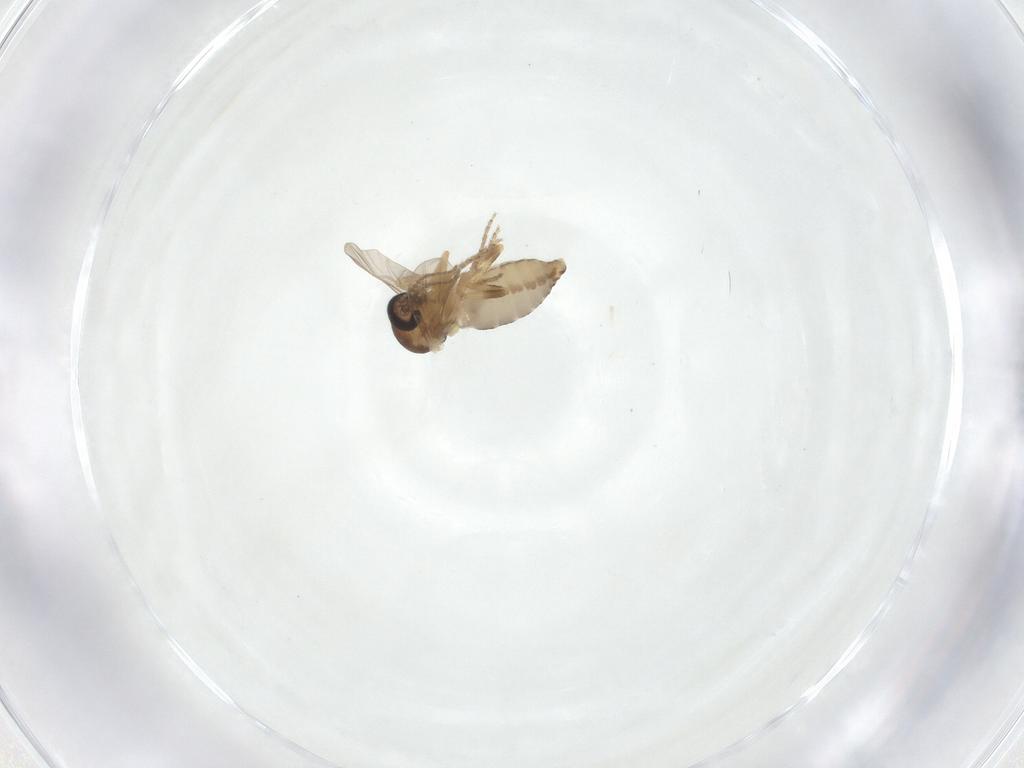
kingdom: Animalia
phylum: Arthropoda
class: Insecta
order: Diptera
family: Ceratopogonidae
